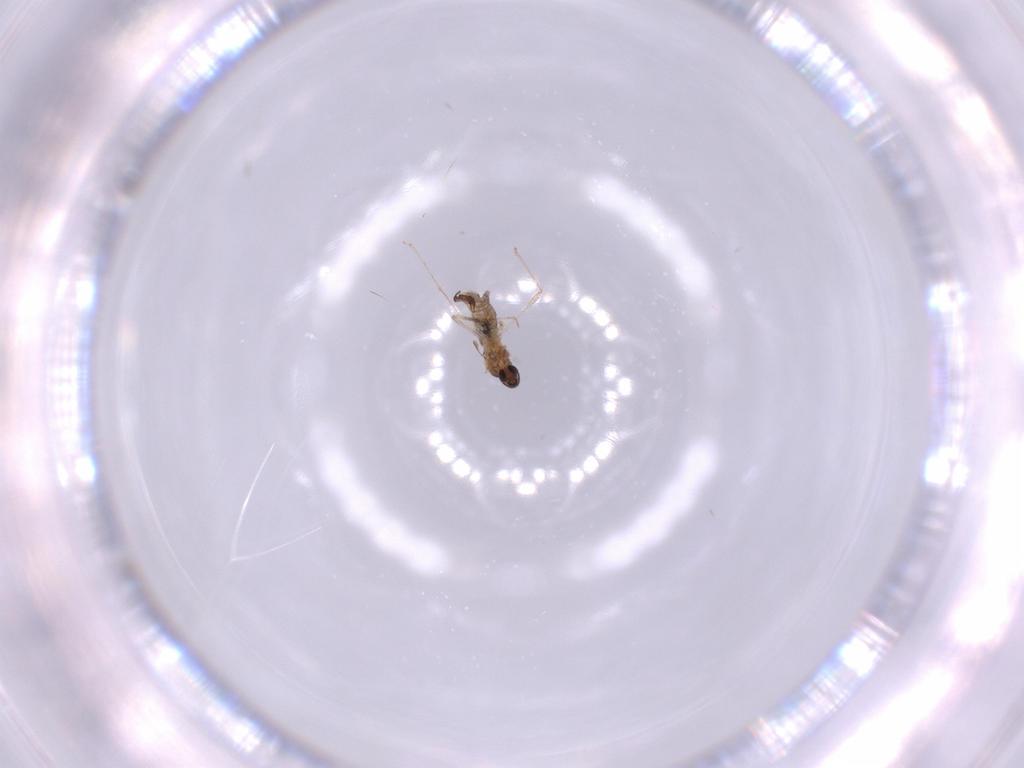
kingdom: Animalia
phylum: Arthropoda
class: Insecta
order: Diptera
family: Cecidomyiidae
